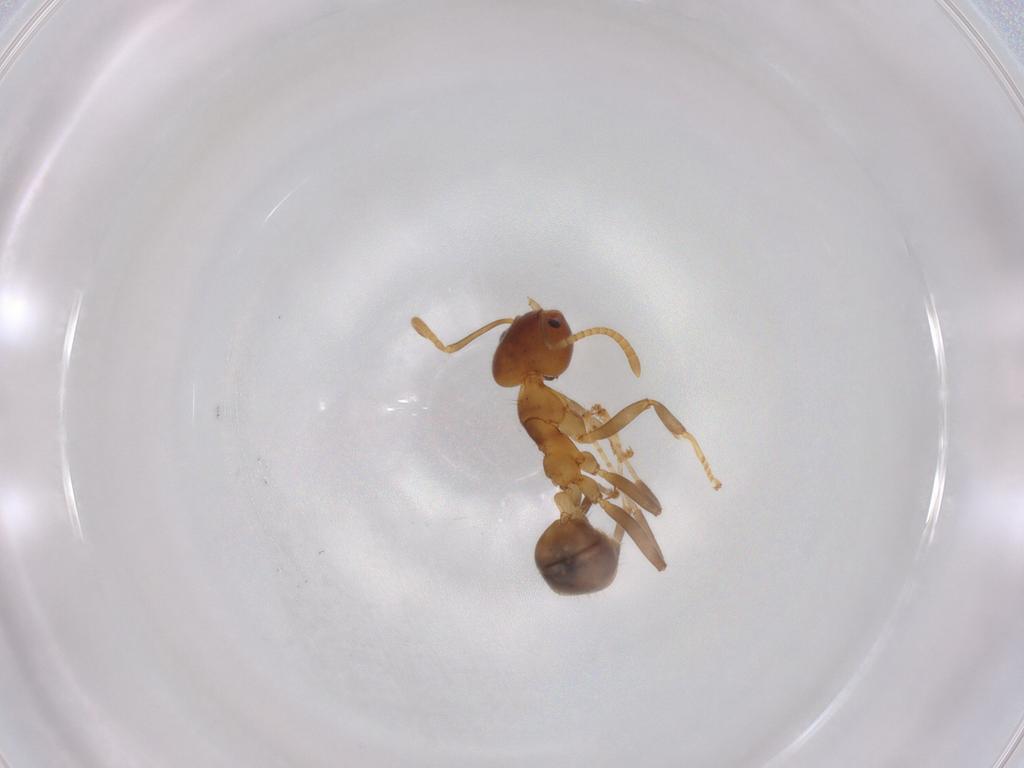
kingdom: Animalia
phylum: Arthropoda
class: Insecta
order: Hymenoptera
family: Formicidae
